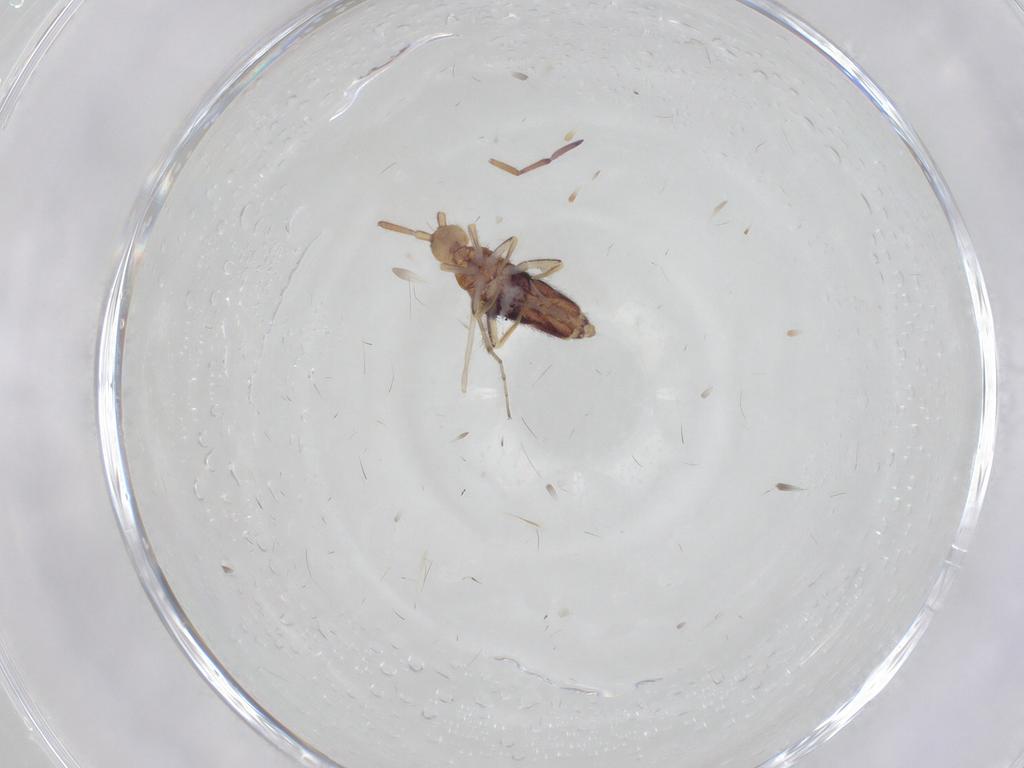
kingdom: Animalia
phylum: Arthropoda
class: Collembola
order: Entomobryomorpha
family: Entomobryidae
